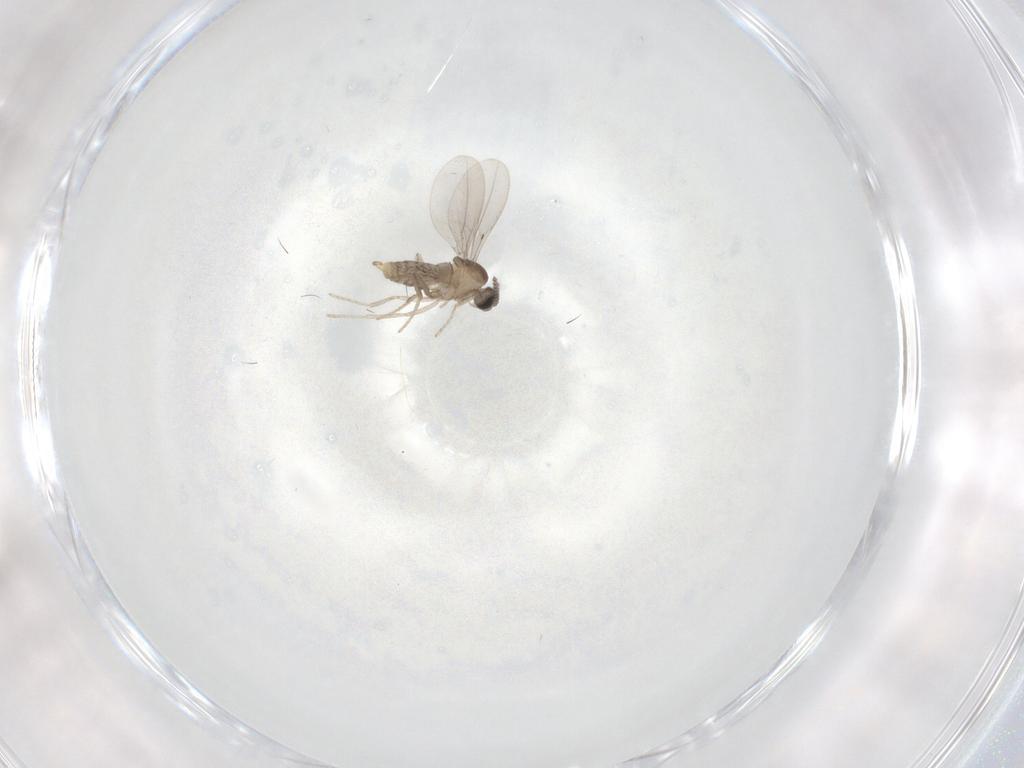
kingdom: Animalia
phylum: Arthropoda
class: Insecta
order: Diptera
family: Cecidomyiidae
